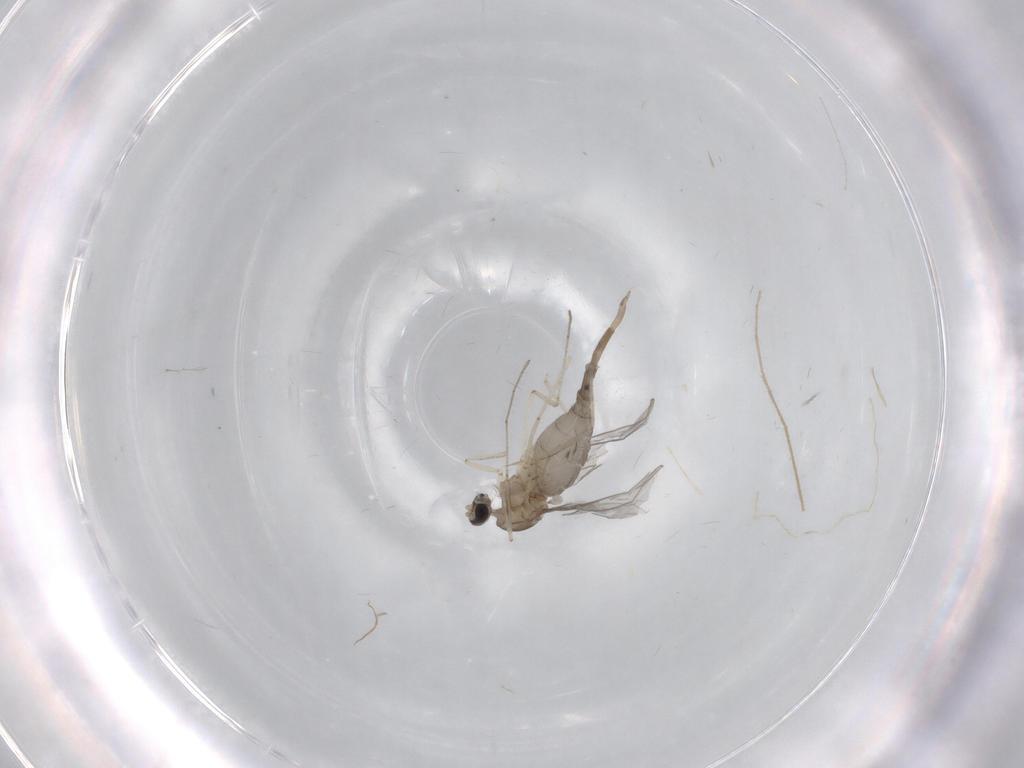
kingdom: Animalia
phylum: Arthropoda
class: Insecta
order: Diptera
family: Cecidomyiidae
